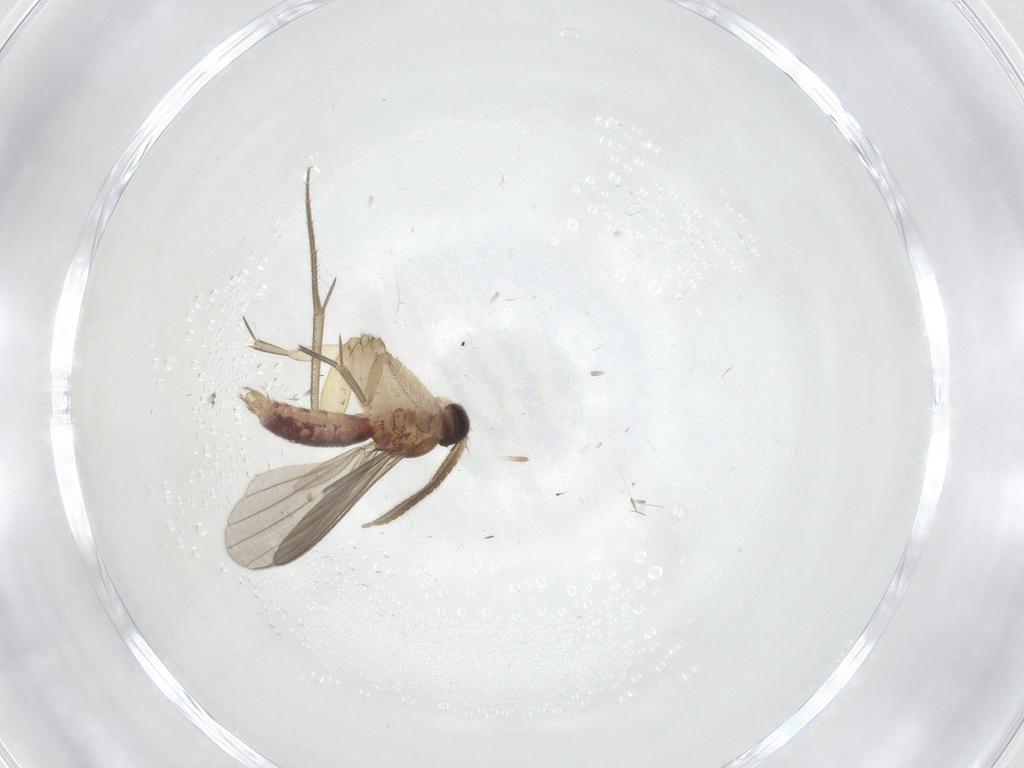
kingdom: Animalia
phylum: Arthropoda
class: Insecta
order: Diptera
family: Mycetophilidae
